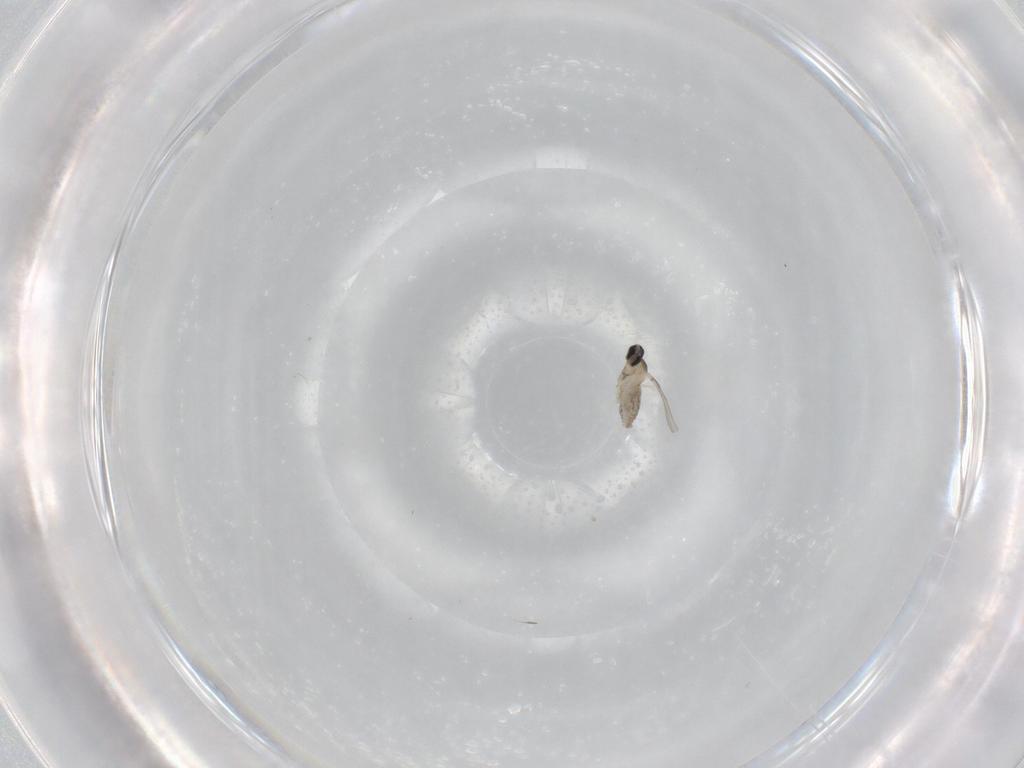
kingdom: Animalia
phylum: Arthropoda
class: Insecta
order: Diptera
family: Cecidomyiidae
